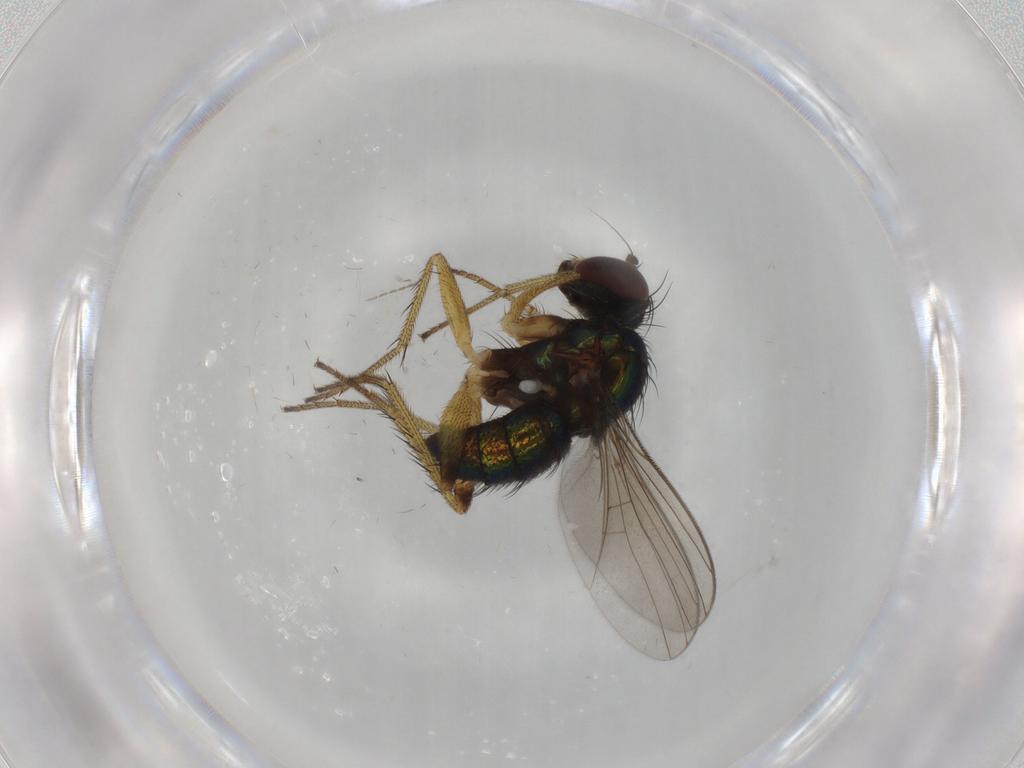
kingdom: Animalia
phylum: Arthropoda
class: Insecta
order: Diptera
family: Dolichopodidae
